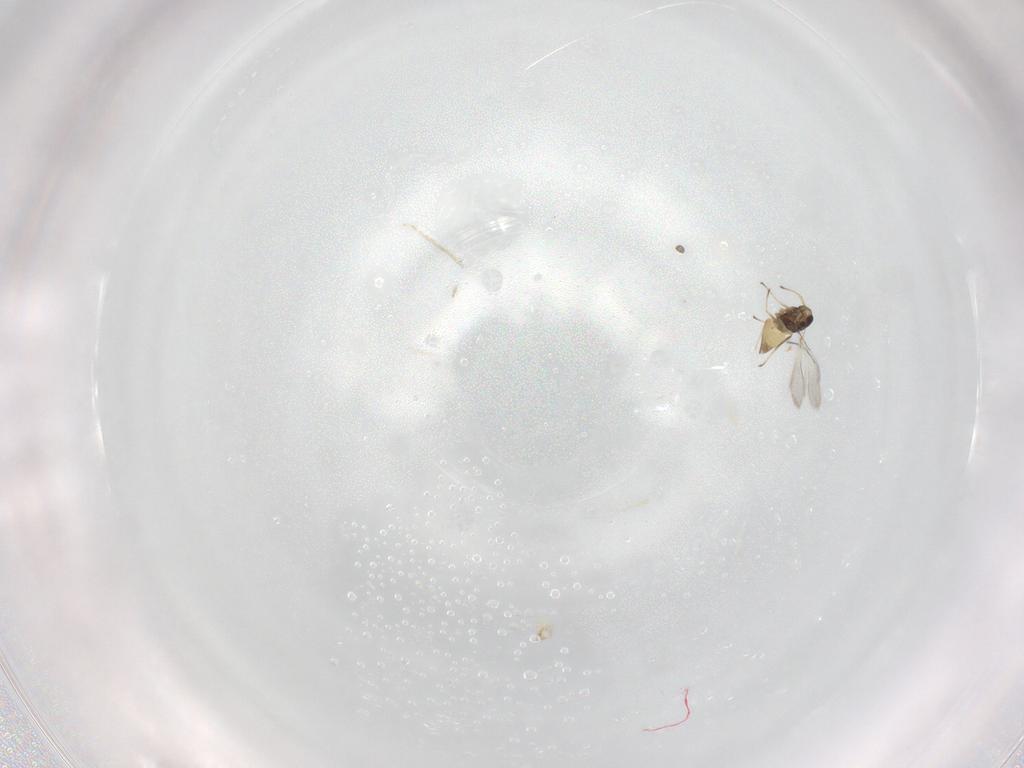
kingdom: Animalia
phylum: Arthropoda
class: Insecta
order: Hymenoptera
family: Mymaridae
